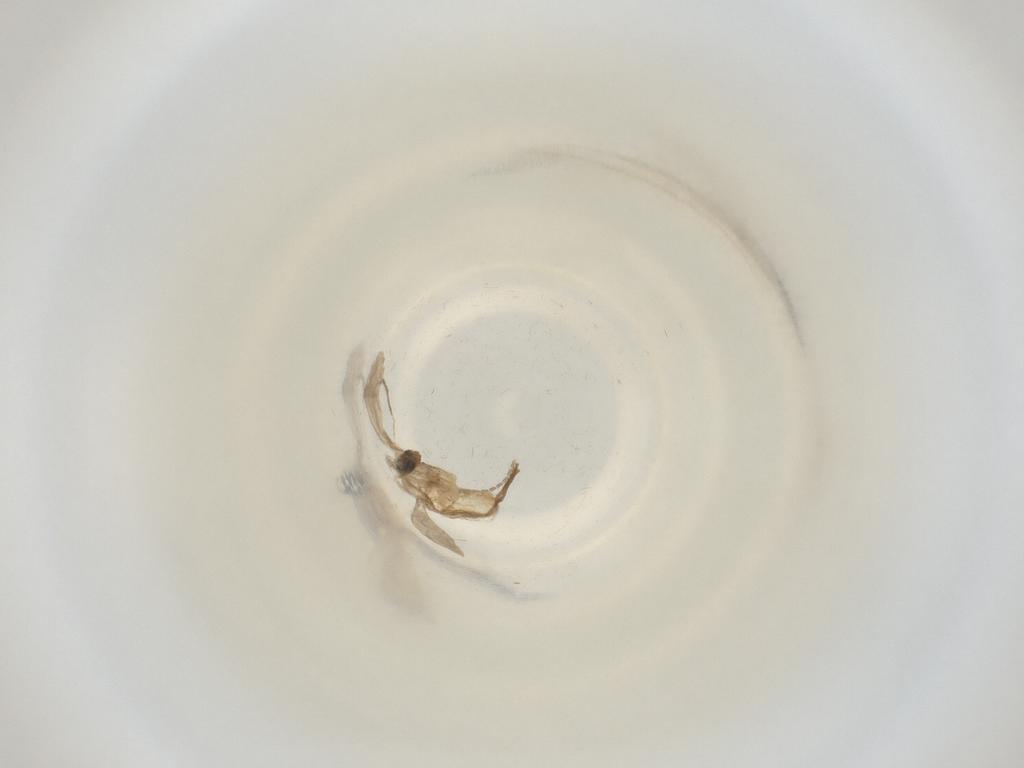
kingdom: Animalia
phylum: Arthropoda
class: Insecta
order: Diptera
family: Cecidomyiidae
